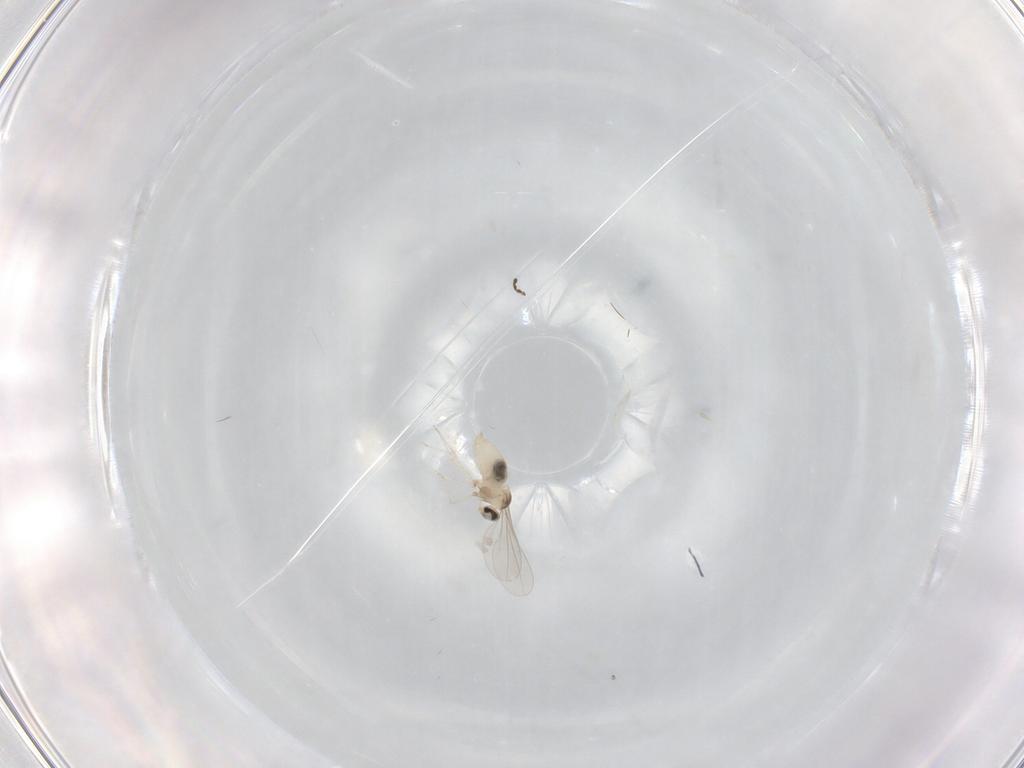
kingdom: Animalia
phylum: Arthropoda
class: Insecta
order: Diptera
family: Cecidomyiidae
